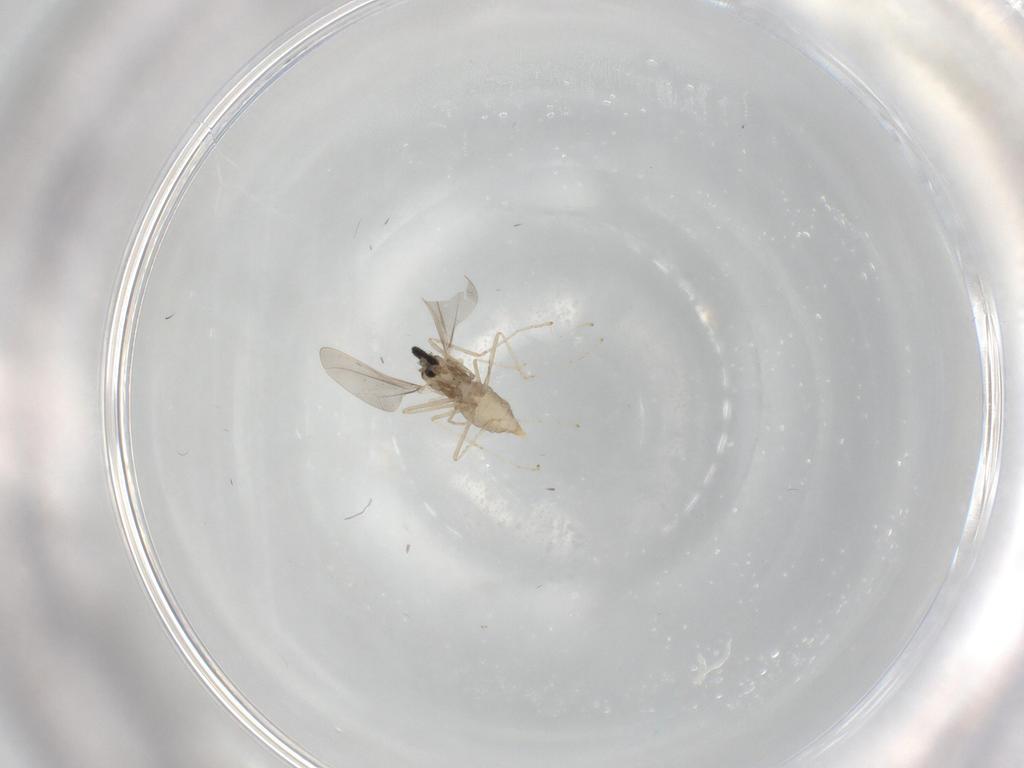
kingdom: Animalia
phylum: Arthropoda
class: Insecta
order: Diptera
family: Cecidomyiidae
